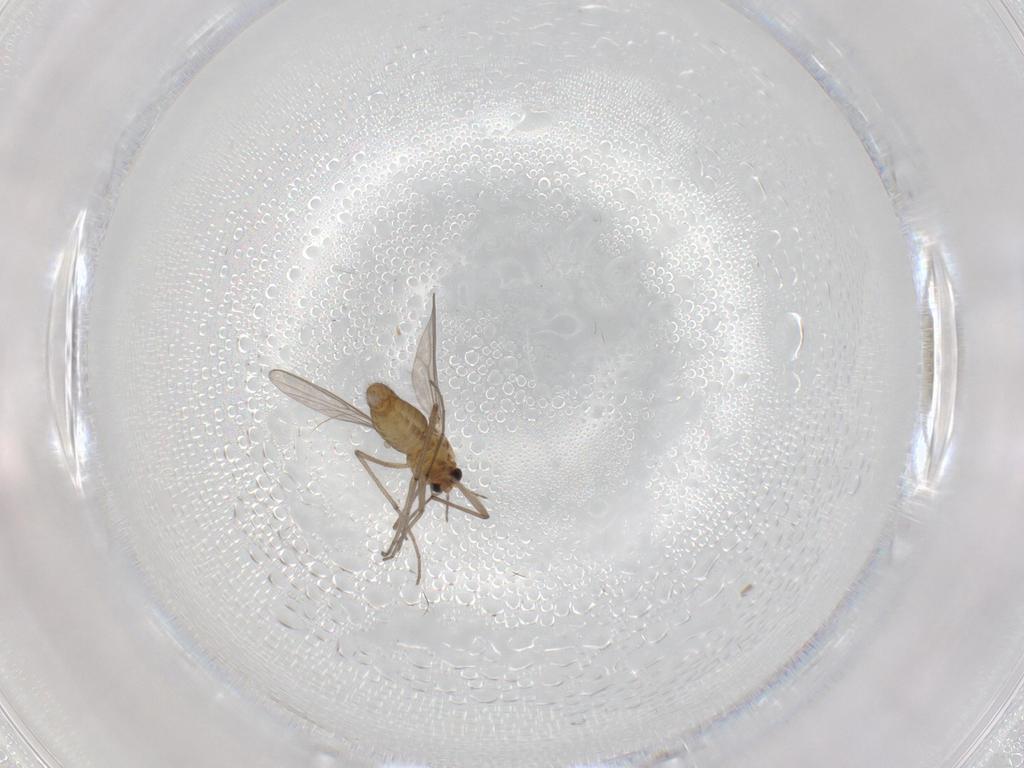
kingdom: Animalia
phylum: Arthropoda
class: Insecta
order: Diptera
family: Chironomidae
